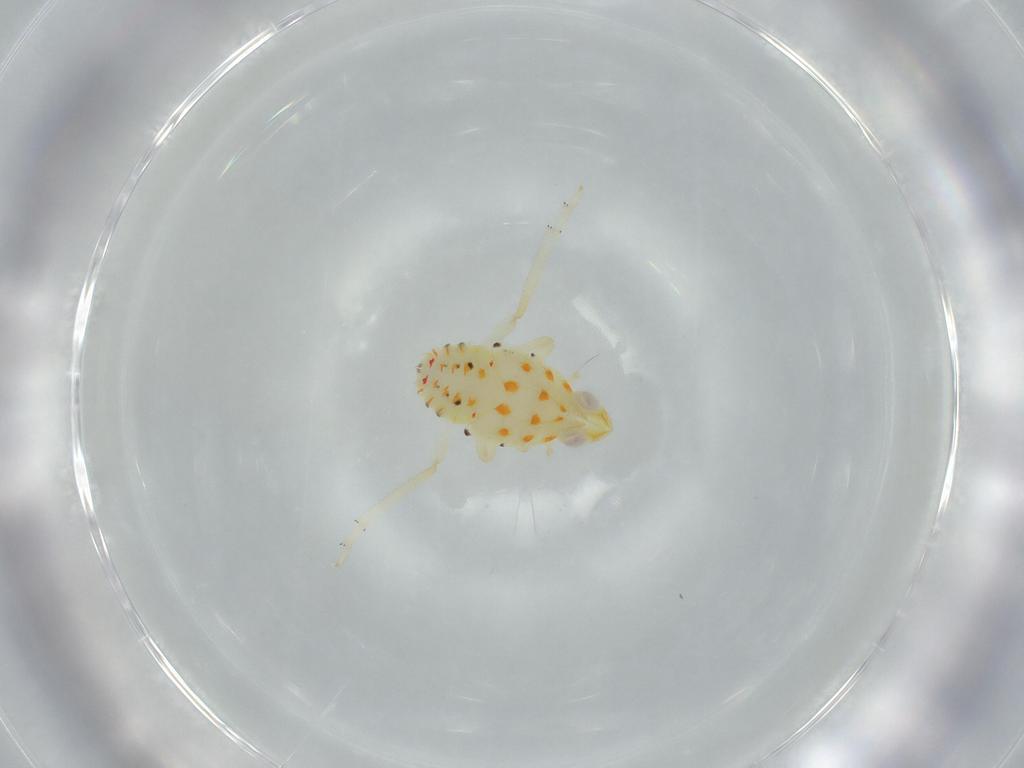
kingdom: Animalia
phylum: Arthropoda
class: Insecta
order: Hemiptera
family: Tropiduchidae
